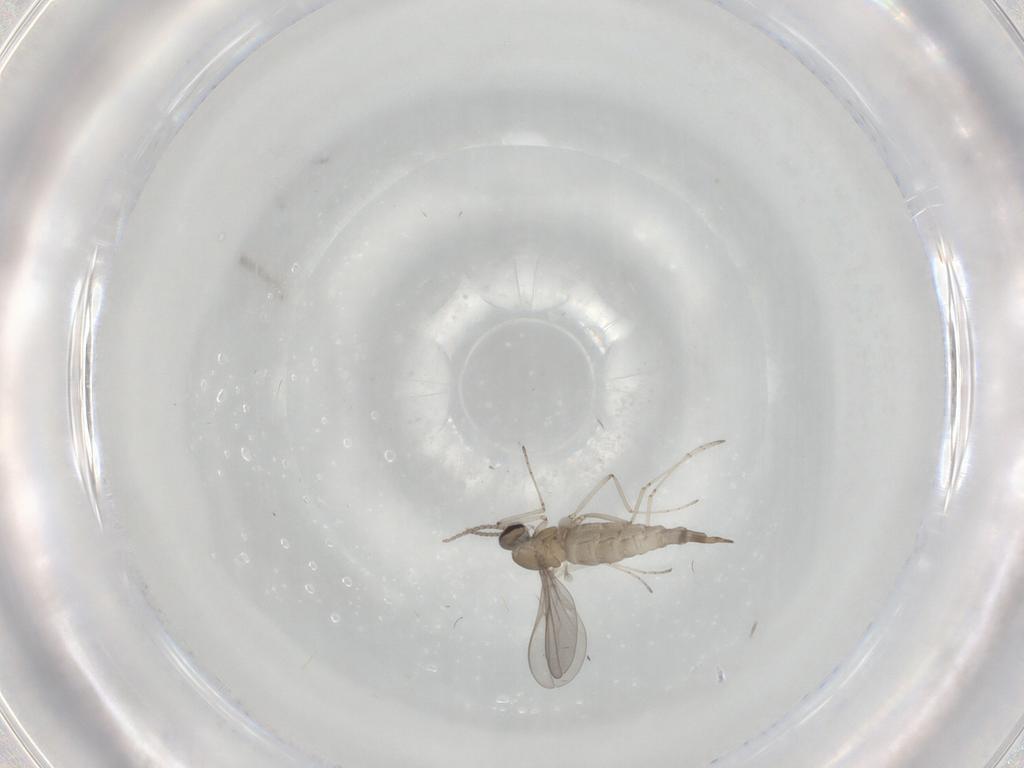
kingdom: Animalia
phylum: Arthropoda
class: Insecta
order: Diptera
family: Cecidomyiidae
